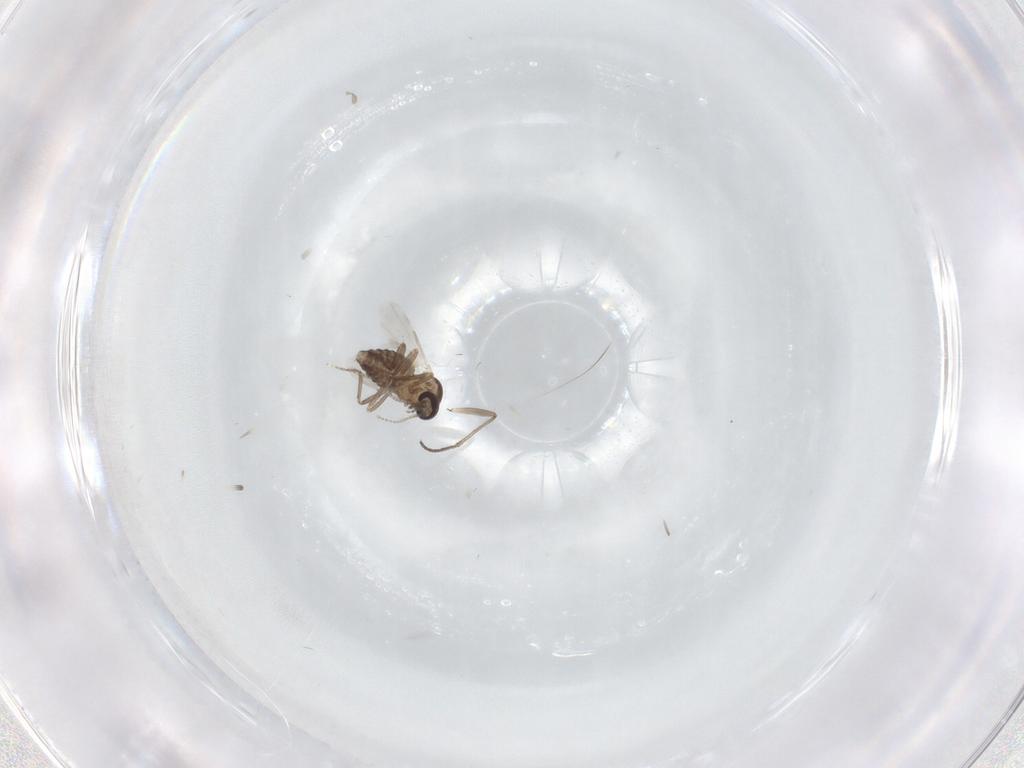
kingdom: Animalia
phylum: Arthropoda
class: Insecta
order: Diptera
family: Ceratopogonidae
